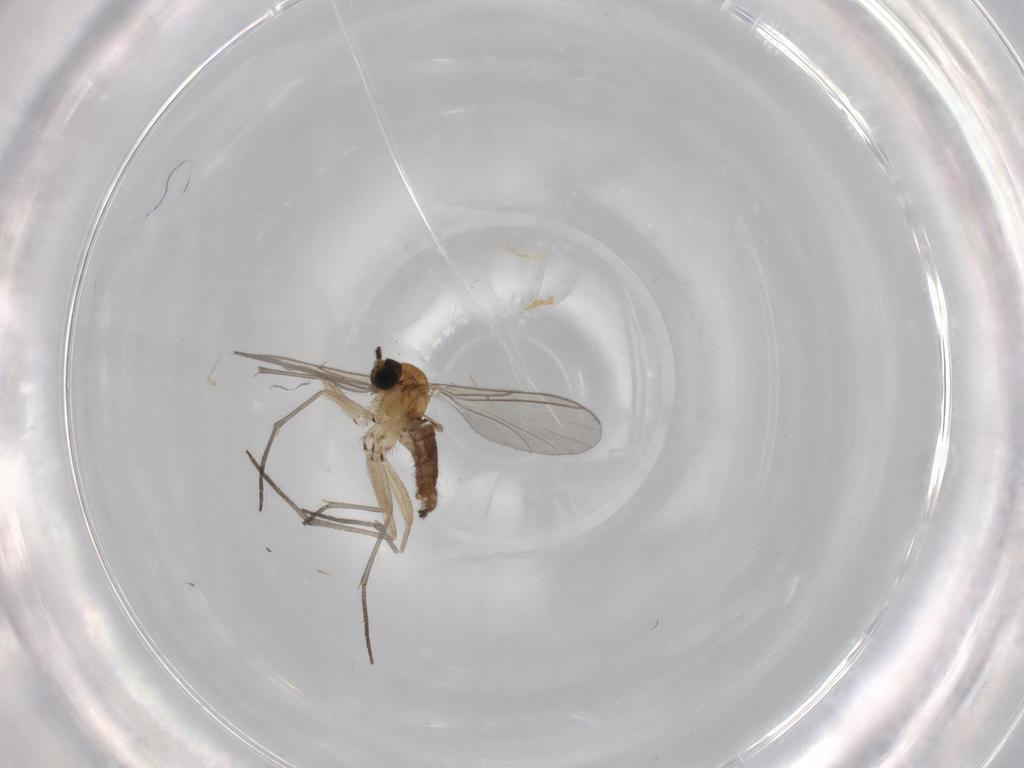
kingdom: Animalia
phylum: Arthropoda
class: Insecta
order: Diptera
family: Sciaridae
